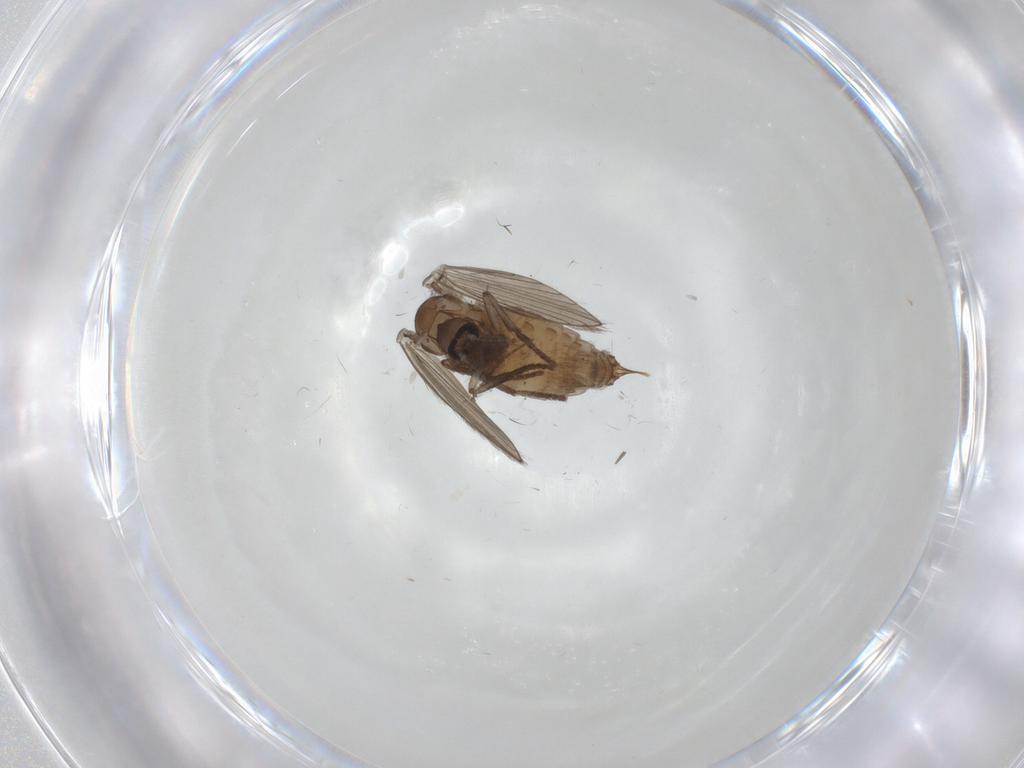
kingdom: Animalia
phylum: Arthropoda
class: Insecta
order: Diptera
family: Ceratopogonidae
